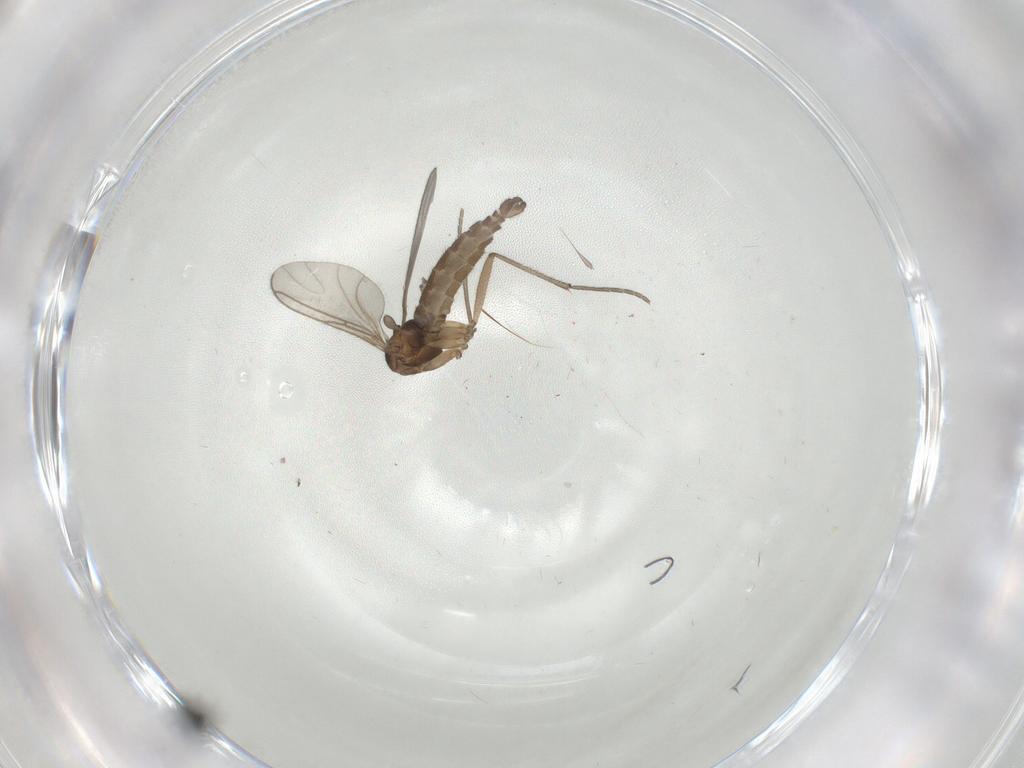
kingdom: Animalia
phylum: Arthropoda
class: Insecta
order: Diptera
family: Sciaridae
